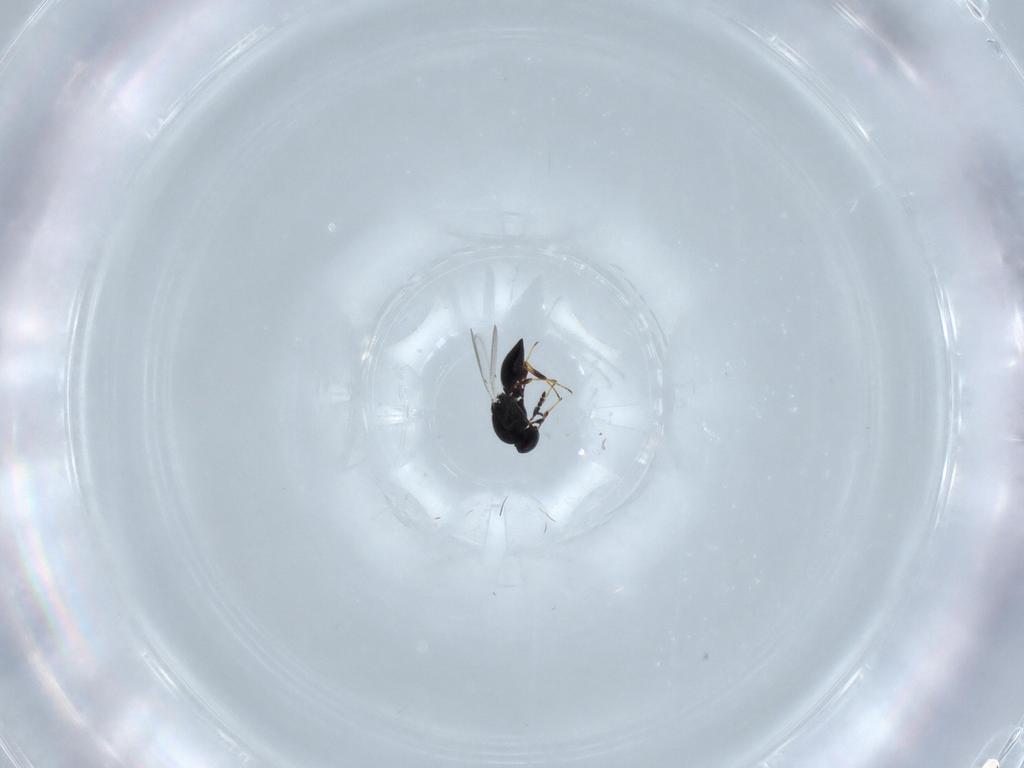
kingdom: Animalia
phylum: Arthropoda
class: Insecta
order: Hymenoptera
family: Platygastridae
